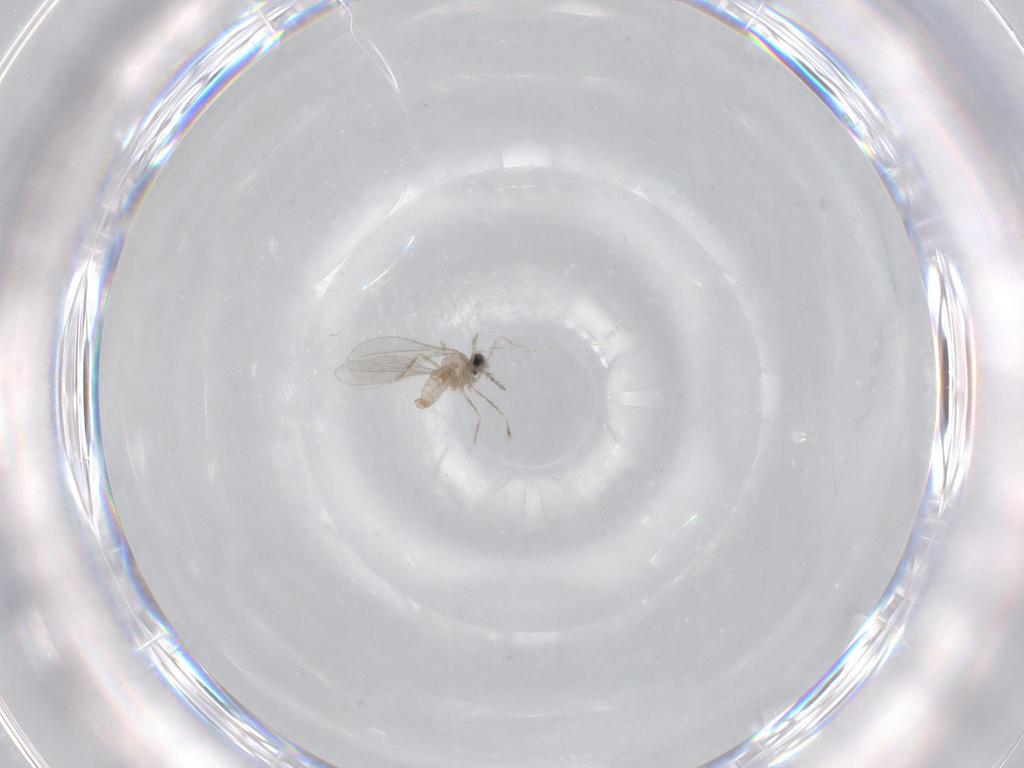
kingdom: Animalia
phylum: Arthropoda
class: Insecta
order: Diptera
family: Stratiomyidae
